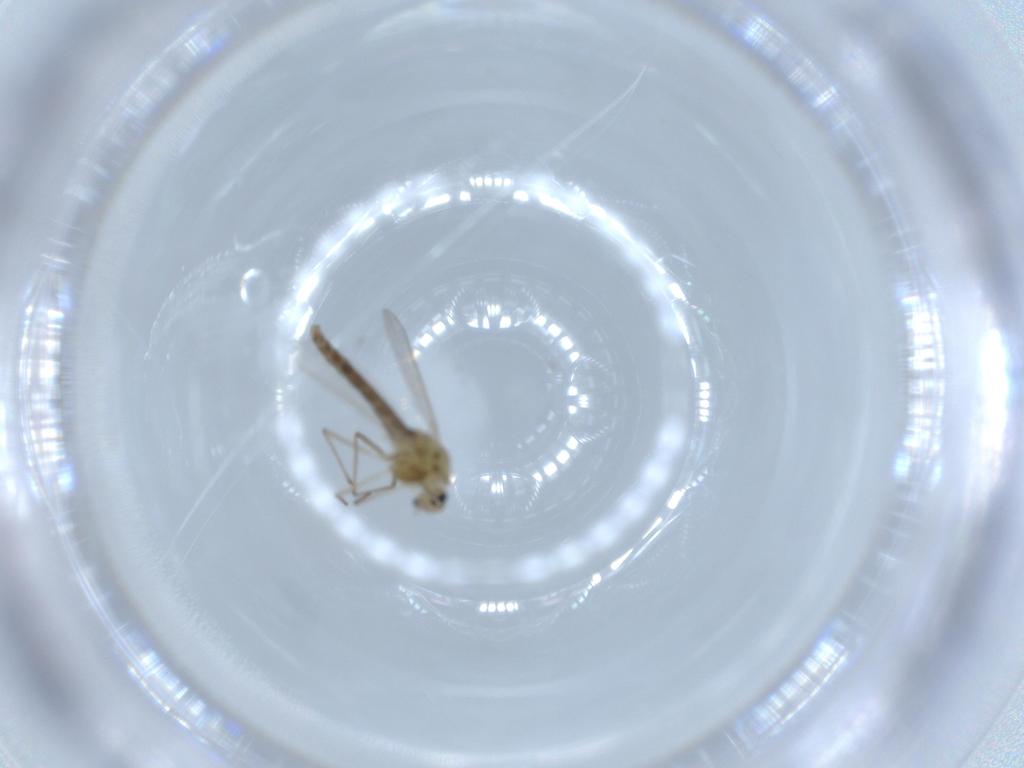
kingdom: Animalia
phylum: Arthropoda
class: Insecta
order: Diptera
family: Chironomidae
